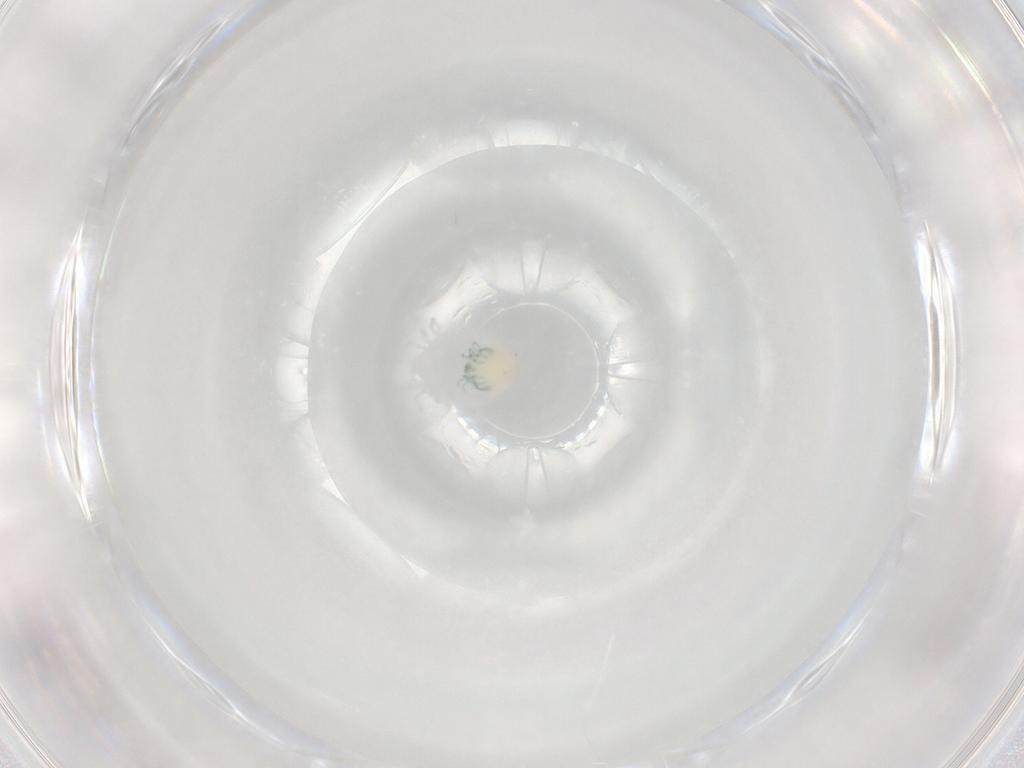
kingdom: Animalia
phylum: Arthropoda
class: Arachnida
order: Trombidiformes
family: Arrenuridae
